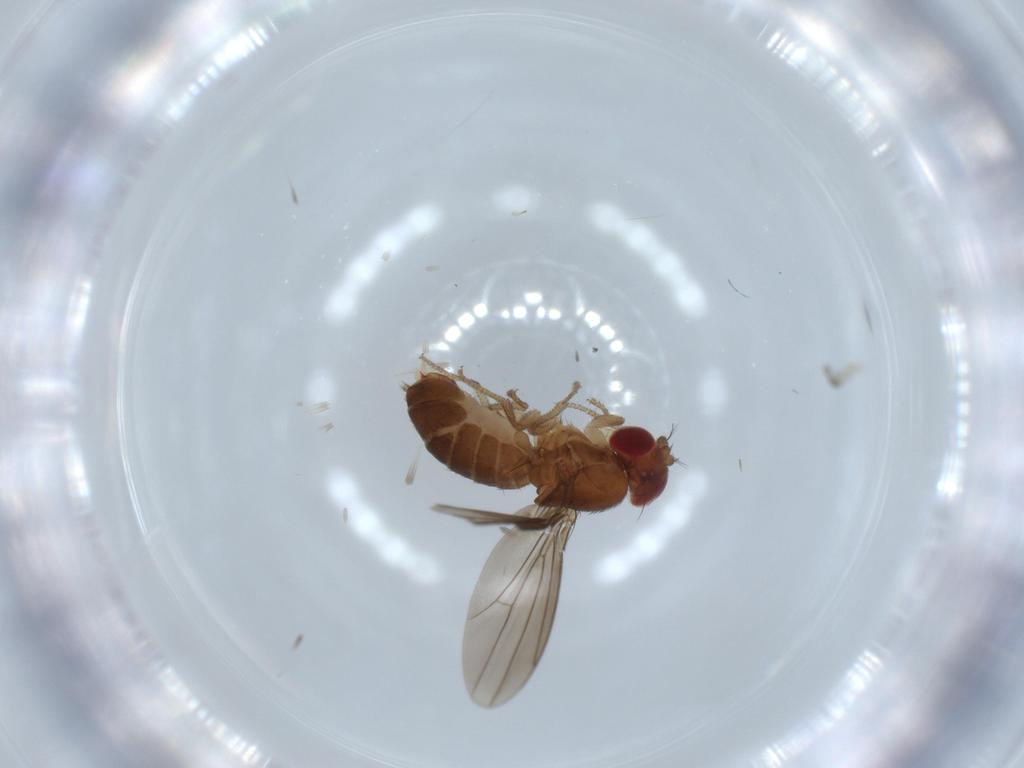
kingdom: Animalia
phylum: Arthropoda
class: Insecta
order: Diptera
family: Drosophilidae
